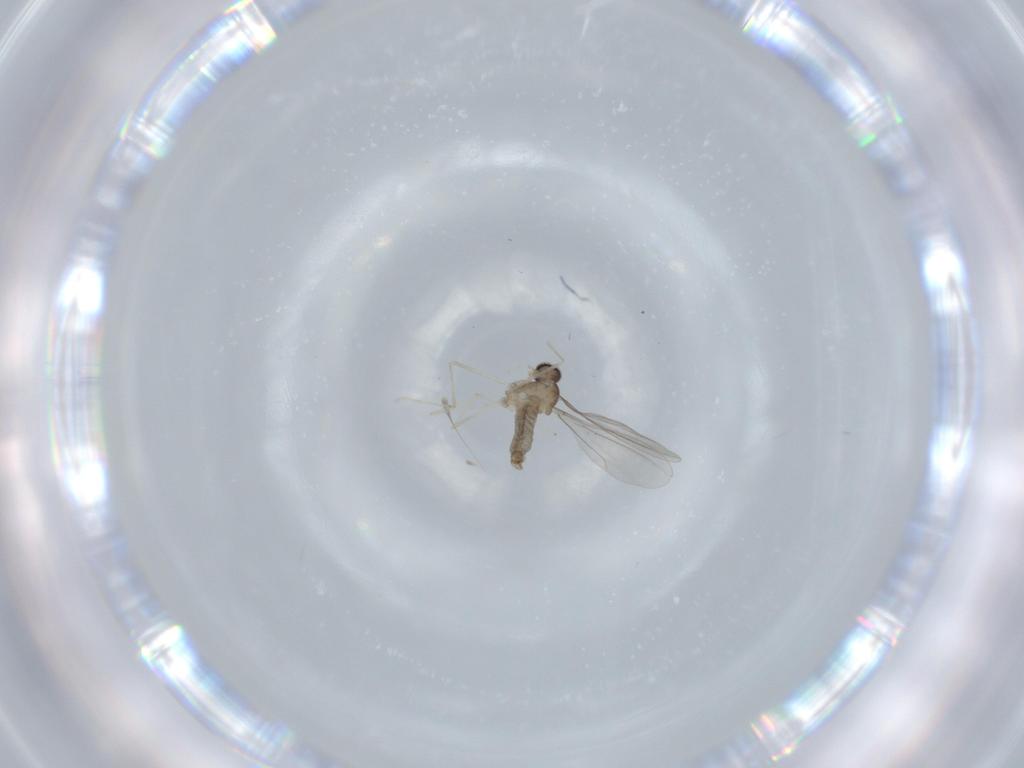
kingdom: Animalia
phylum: Arthropoda
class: Insecta
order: Diptera
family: Cecidomyiidae
